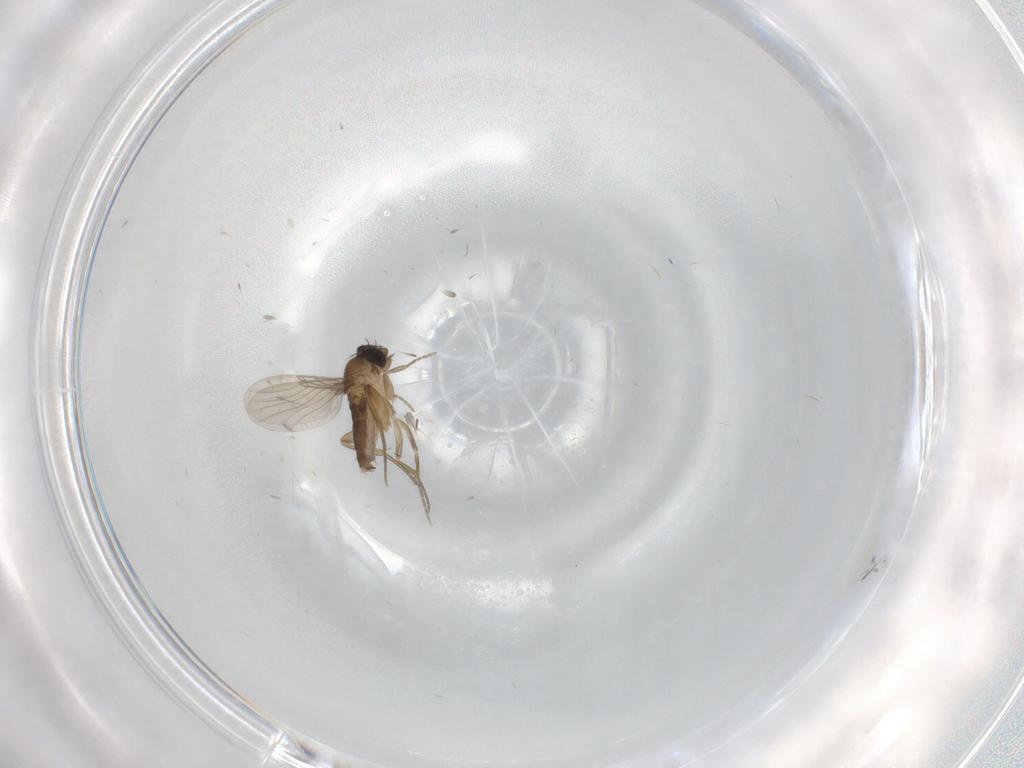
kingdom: Animalia
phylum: Arthropoda
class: Insecta
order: Diptera
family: Phoridae
